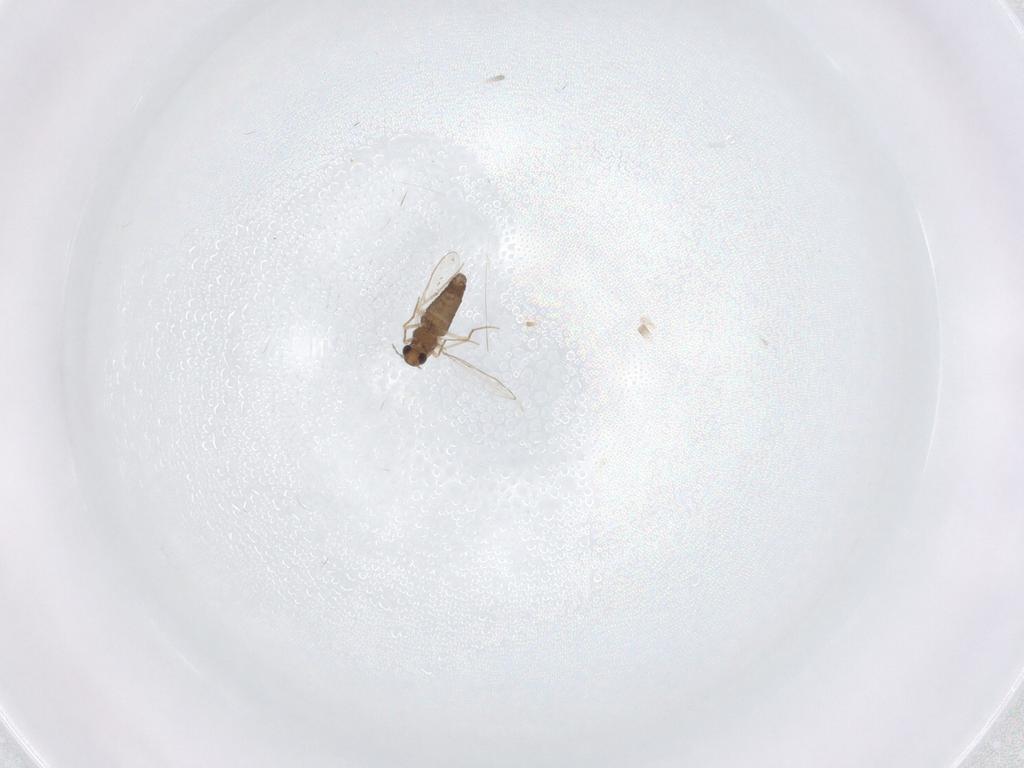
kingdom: Animalia
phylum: Arthropoda
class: Insecta
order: Diptera
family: Chironomidae
